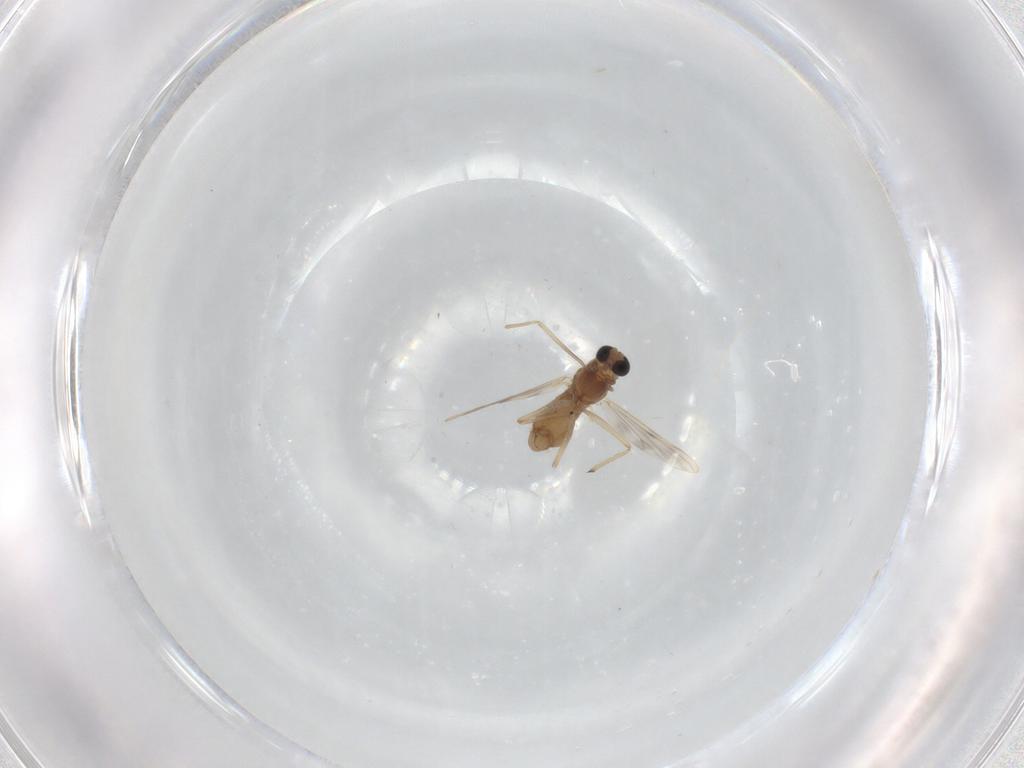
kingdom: Animalia
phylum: Arthropoda
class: Insecta
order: Diptera
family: Chironomidae
